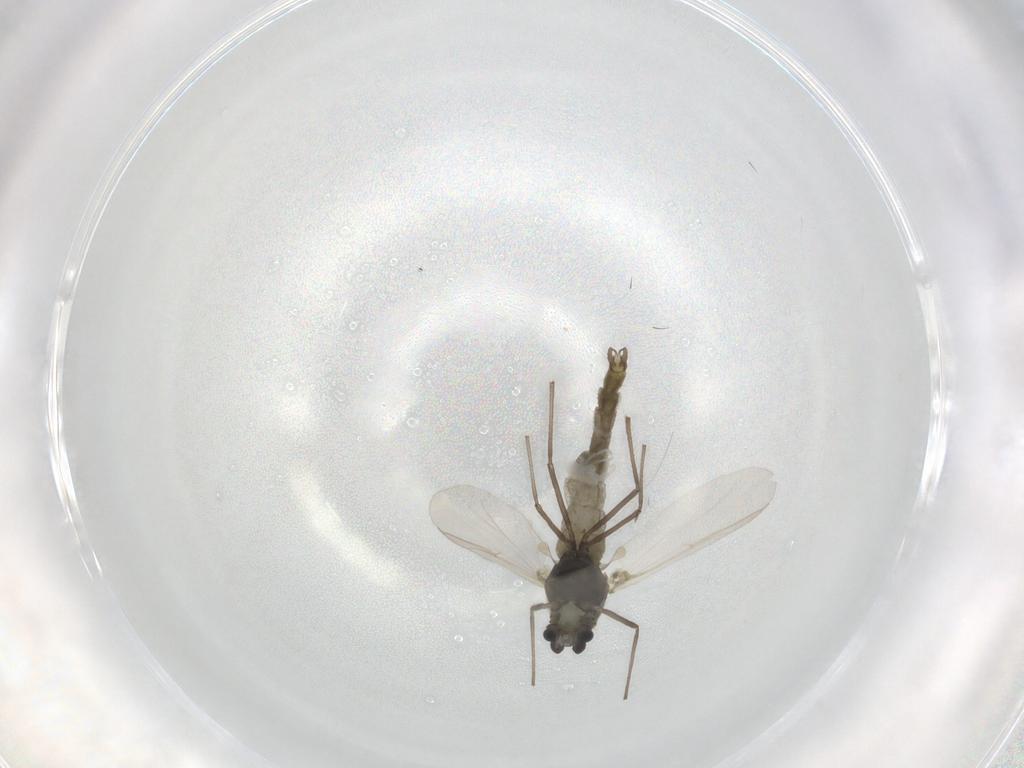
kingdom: Animalia
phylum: Arthropoda
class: Insecta
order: Diptera
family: Chironomidae
